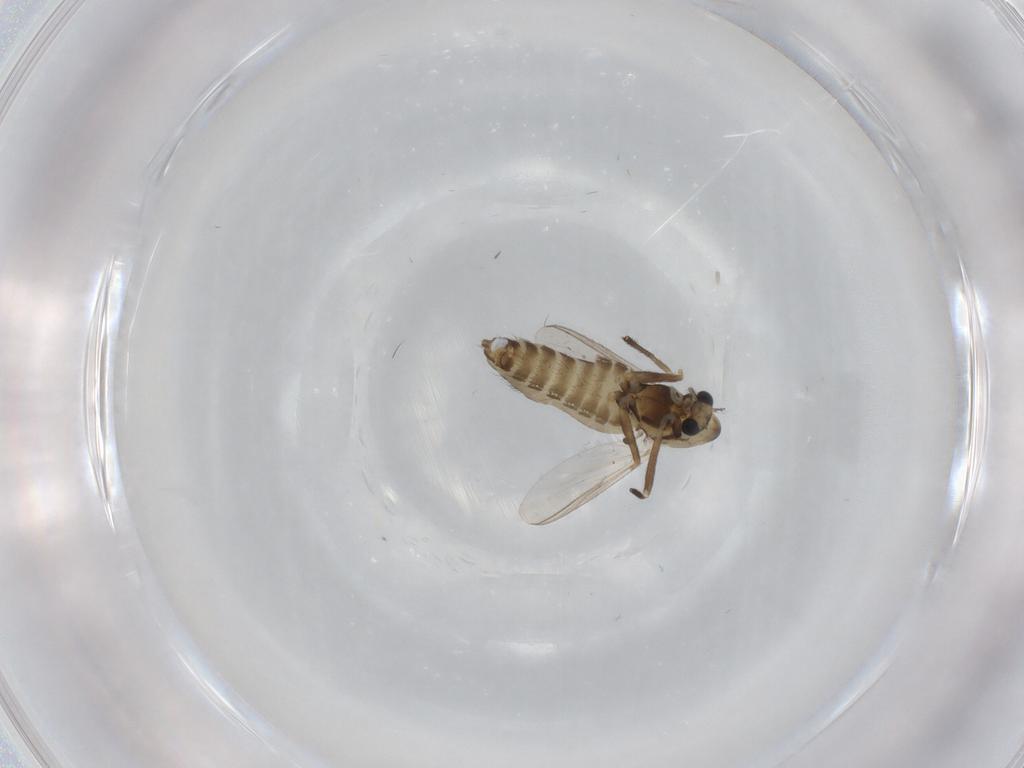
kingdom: Animalia
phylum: Arthropoda
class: Insecta
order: Diptera
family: Chironomidae
